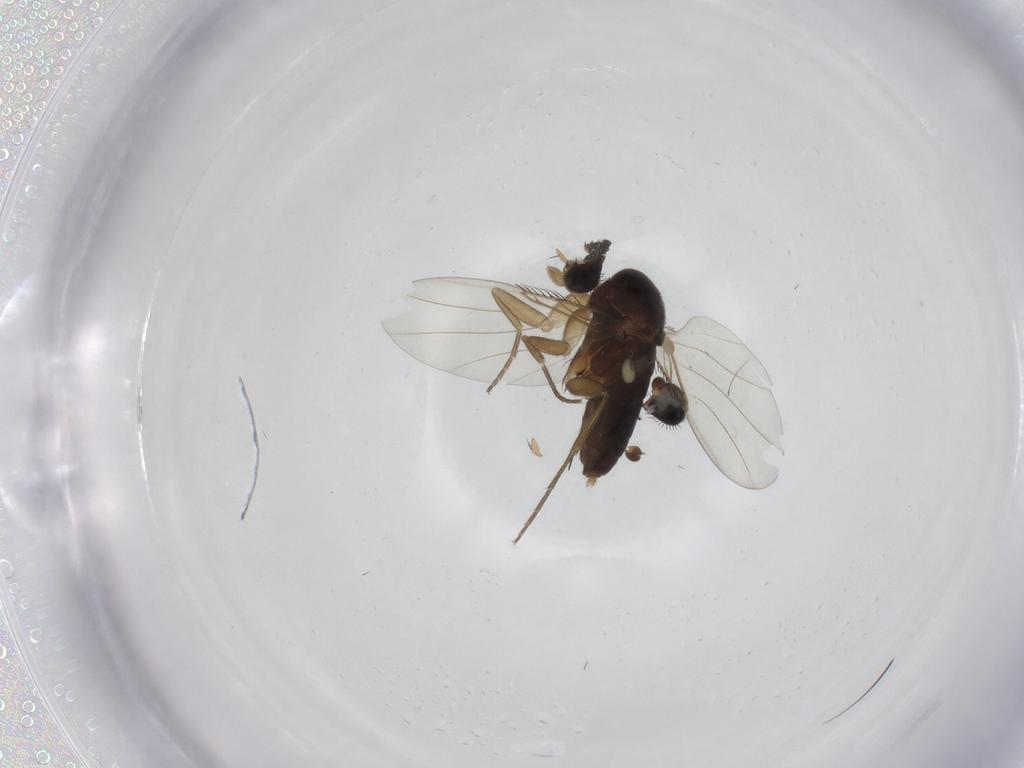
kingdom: Animalia
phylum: Arthropoda
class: Insecta
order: Diptera
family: Phoridae
